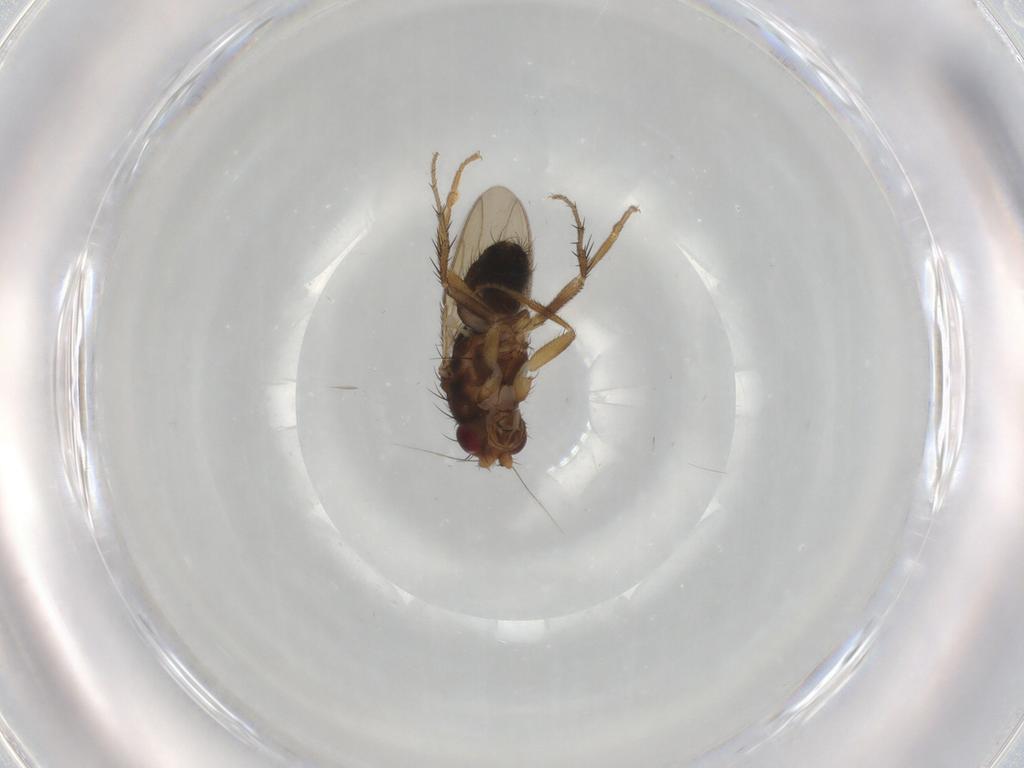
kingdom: Animalia
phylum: Arthropoda
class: Insecta
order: Diptera
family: Sphaeroceridae
